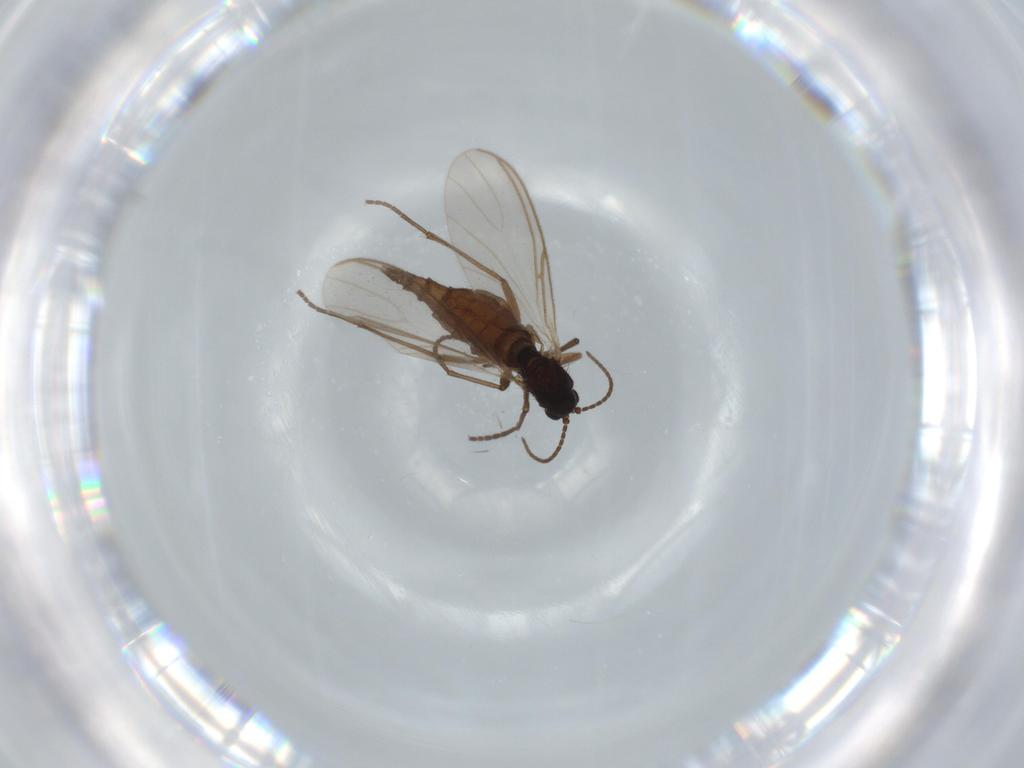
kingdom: Animalia
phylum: Arthropoda
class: Insecta
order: Diptera
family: Sciaridae
